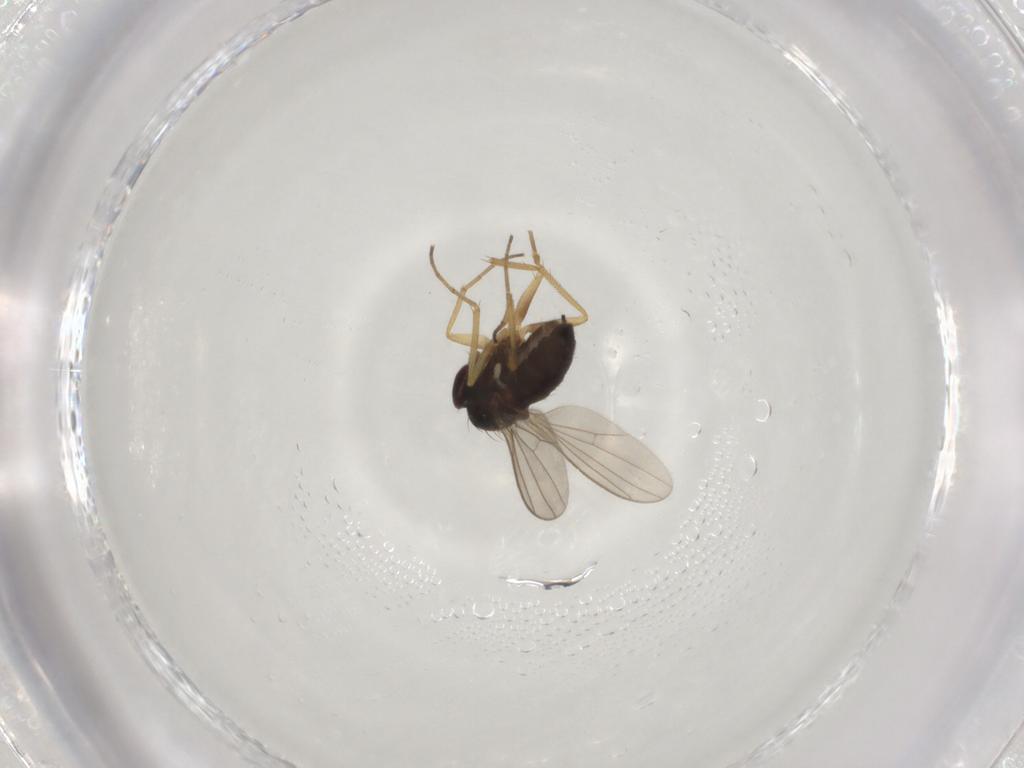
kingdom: Animalia
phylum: Arthropoda
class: Insecta
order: Diptera
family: Dolichopodidae
